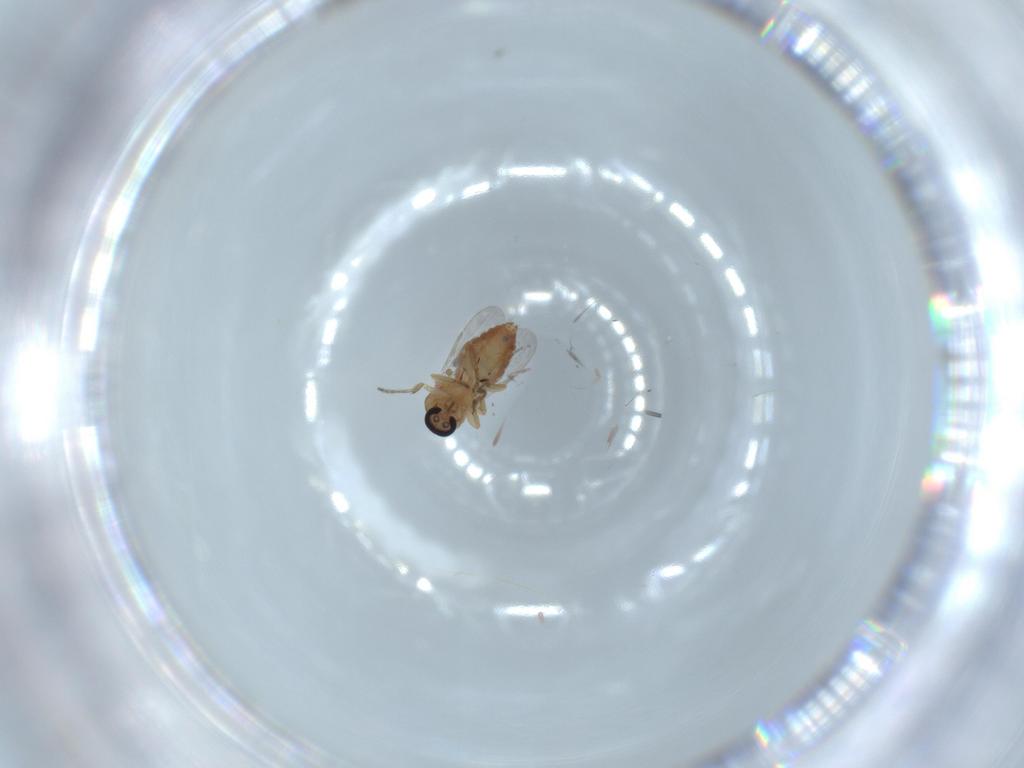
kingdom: Animalia
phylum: Arthropoda
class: Insecta
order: Diptera
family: Ceratopogonidae
